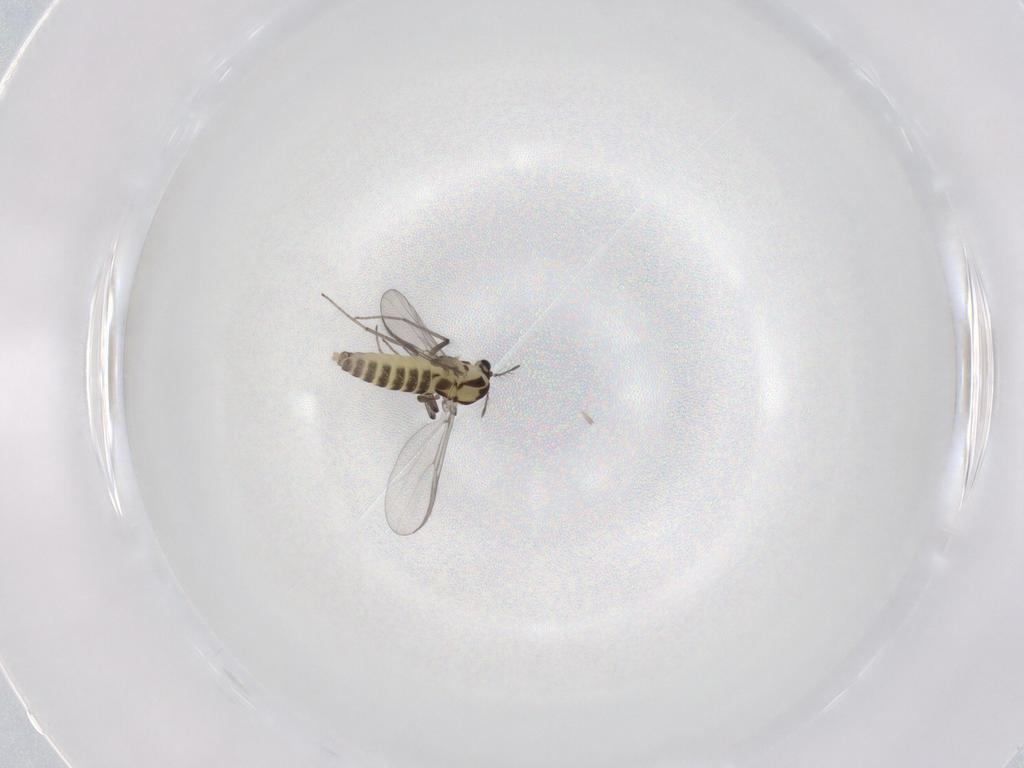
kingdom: Animalia
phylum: Arthropoda
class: Insecta
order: Diptera
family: Chironomidae
